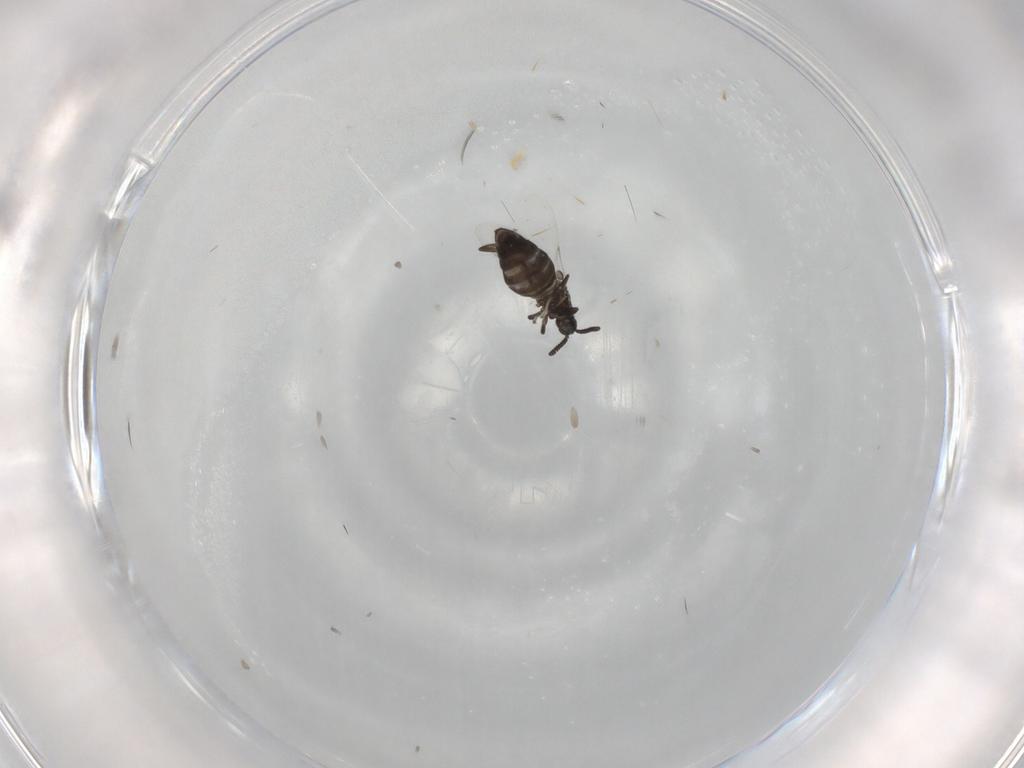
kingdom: Animalia
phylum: Arthropoda
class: Insecta
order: Diptera
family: Scatopsidae
